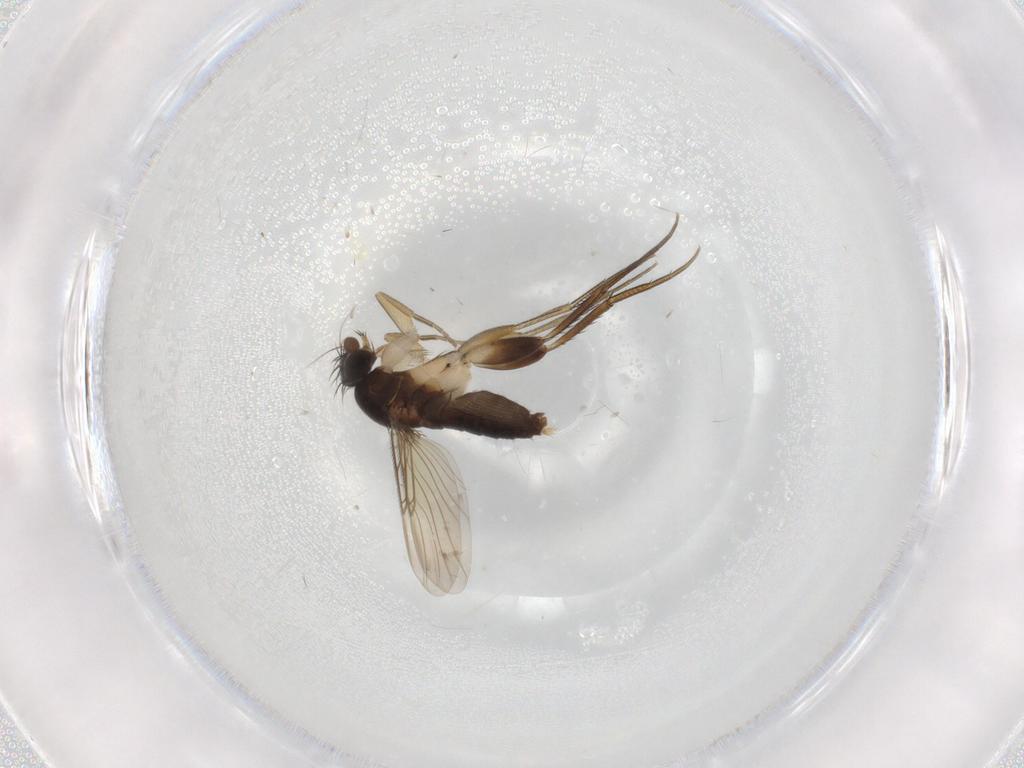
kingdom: Animalia
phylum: Arthropoda
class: Insecta
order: Diptera
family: Phoridae
